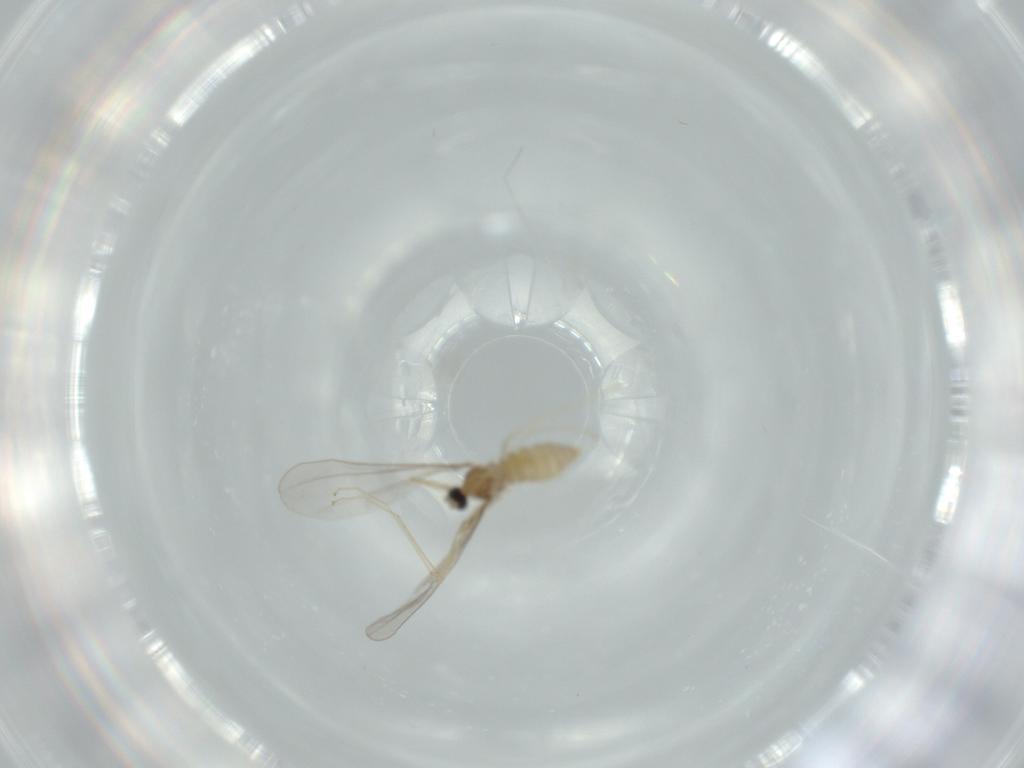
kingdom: Animalia
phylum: Arthropoda
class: Insecta
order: Diptera
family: Cecidomyiidae
